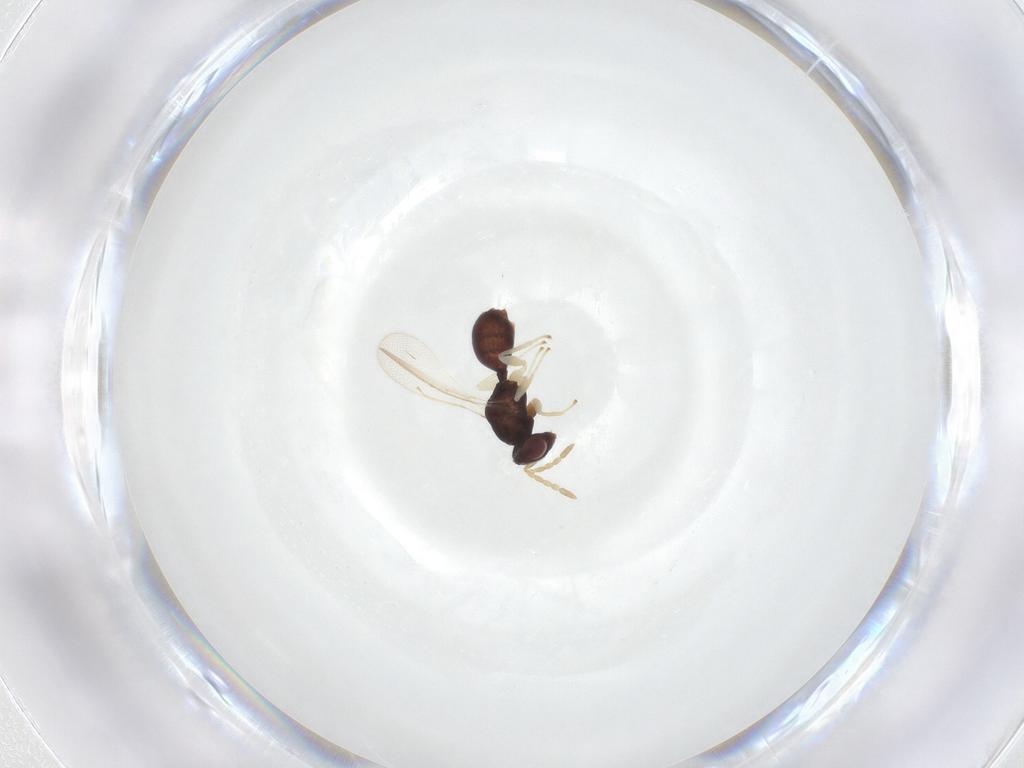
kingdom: Animalia
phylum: Arthropoda
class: Insecta
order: Hymenoptera
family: Eulophidae
